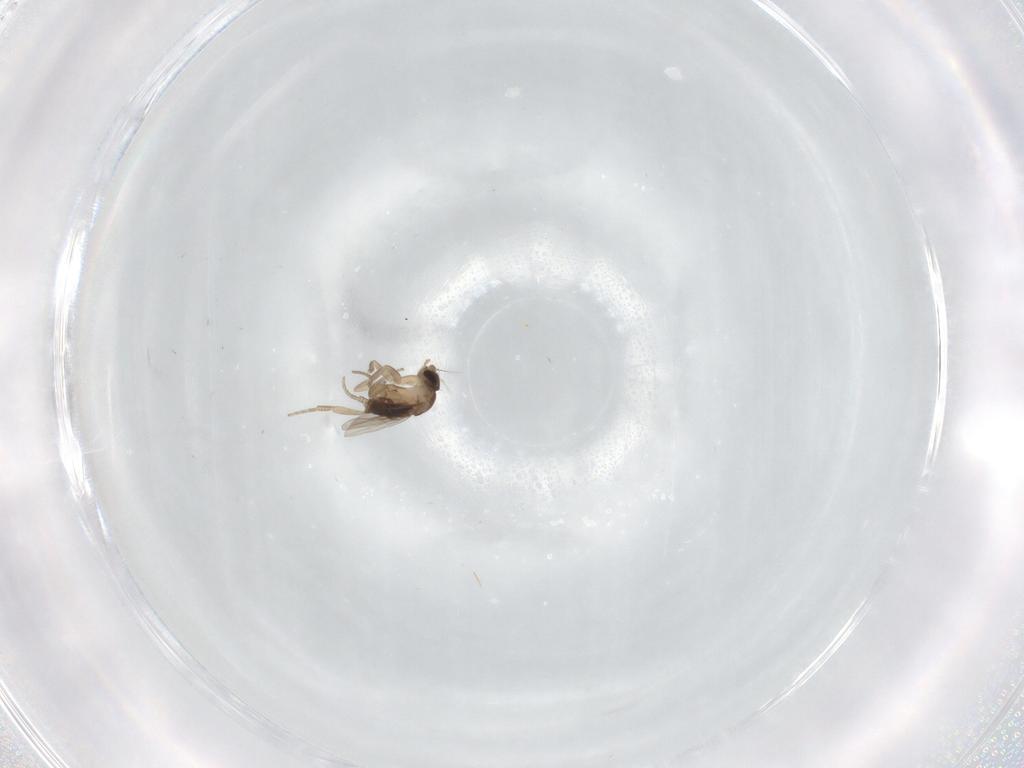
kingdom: Animalia
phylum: Arthropoda
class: Insecta
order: Diptera
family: Phoridae
